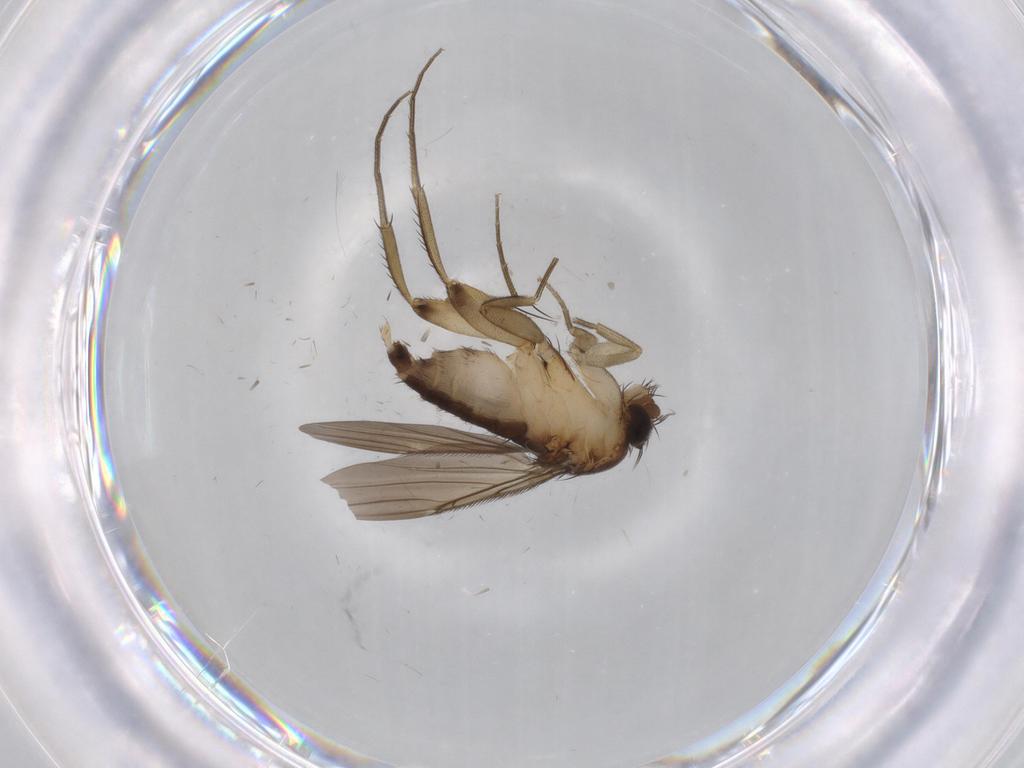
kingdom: Animalia
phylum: Arthropoda
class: Insecta
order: Diptera
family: Phoridae
